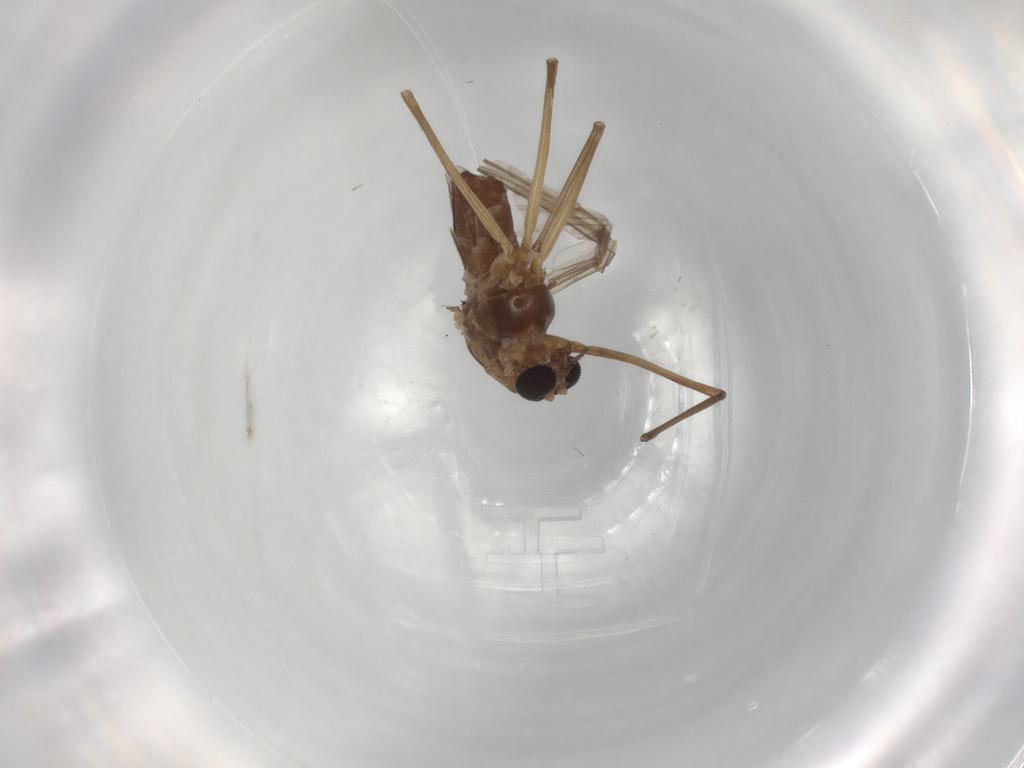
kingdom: Animalia
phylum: Arthropoda
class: Insecta
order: Diptera
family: Chironomidae
